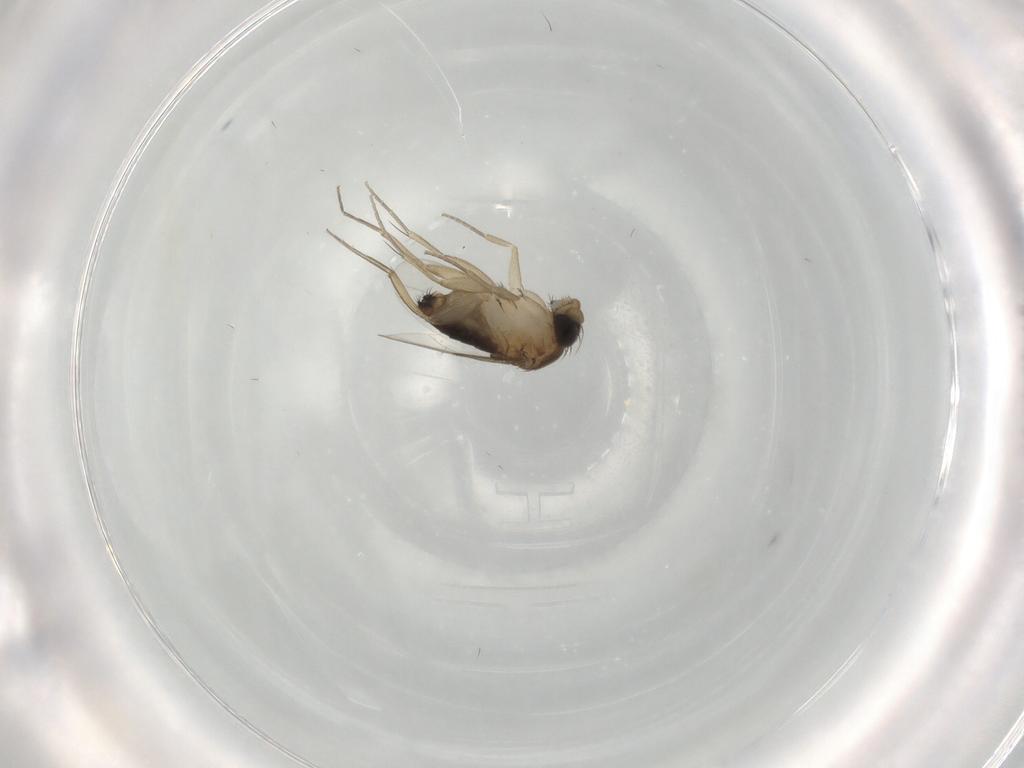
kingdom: Animalia
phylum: Arthropoda
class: Insecta
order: Diptera
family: Phoridae
